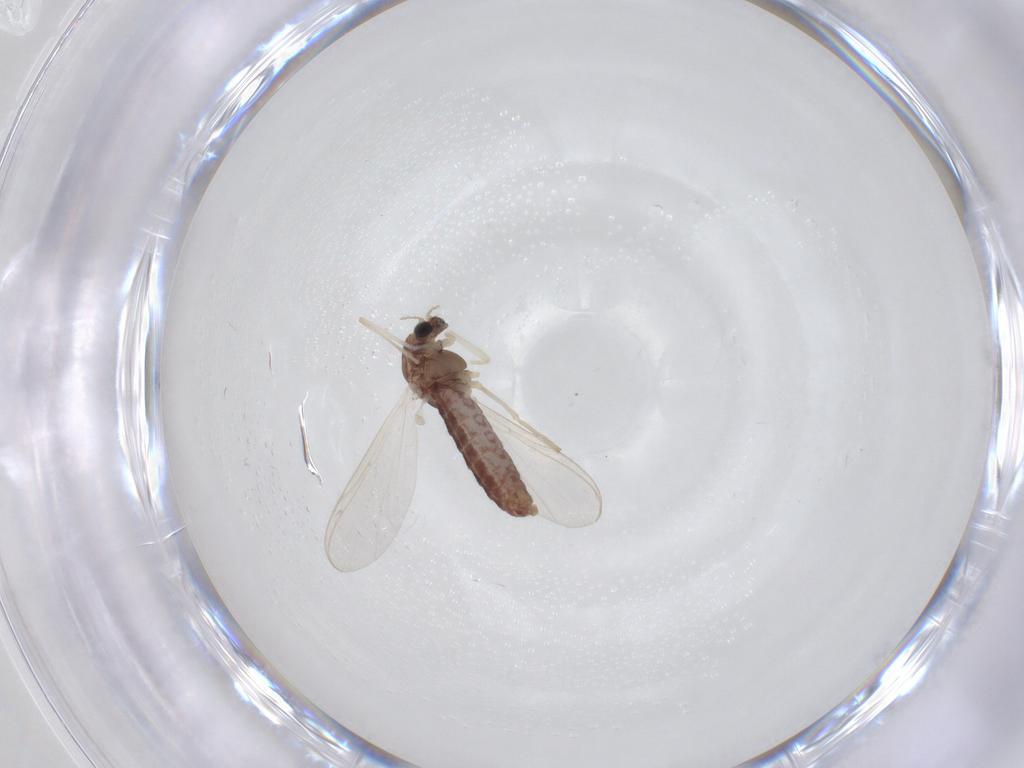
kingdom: Animalia
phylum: Arthropoda
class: Insecta
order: Diptera
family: Chironomidae
